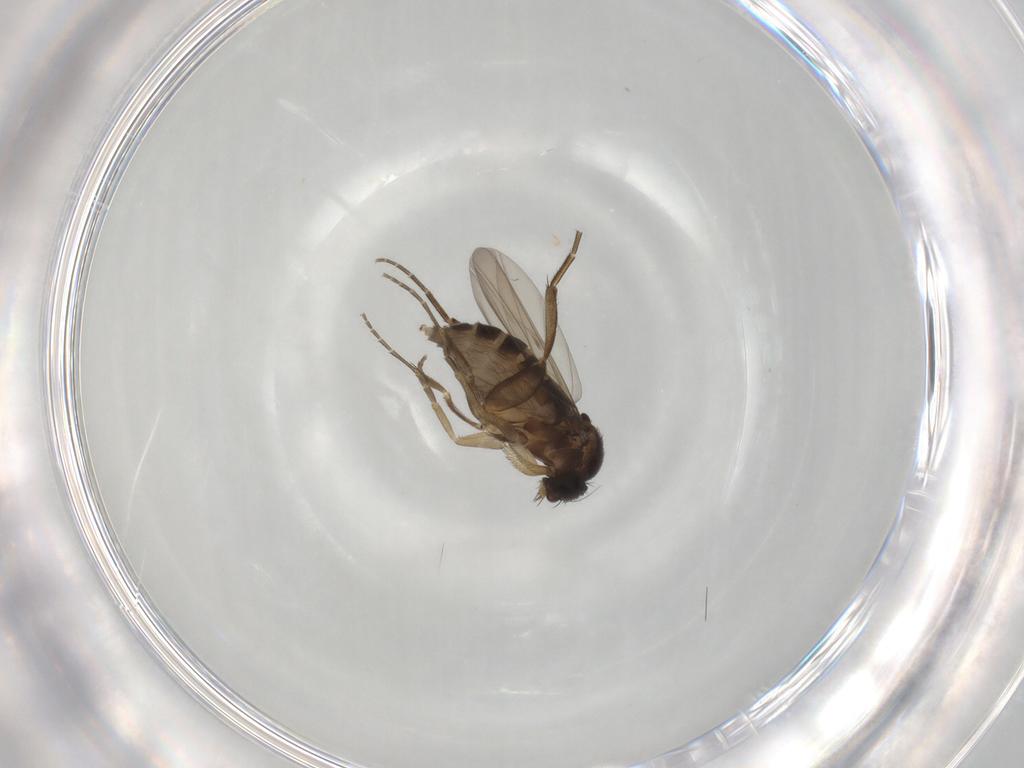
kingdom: Animalia
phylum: Arthropoda
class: Insecta
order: Diptera
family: Phoridae
